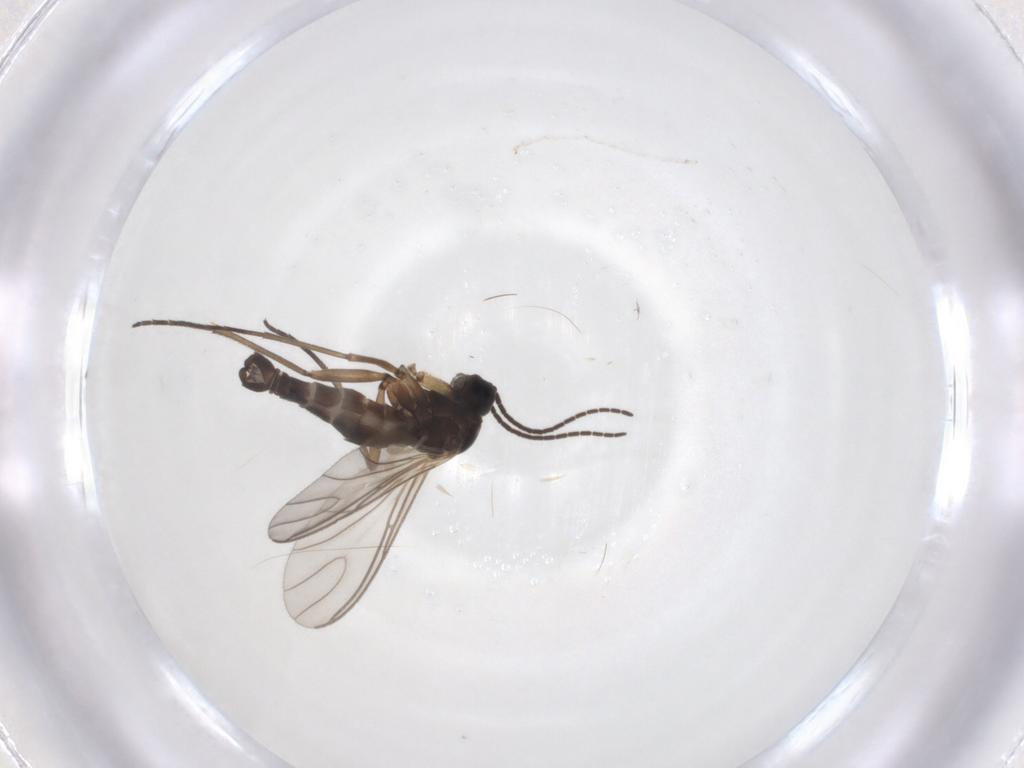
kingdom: Animalia
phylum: Arthropoda
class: Insecta
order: Diptera
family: Sciaridae
